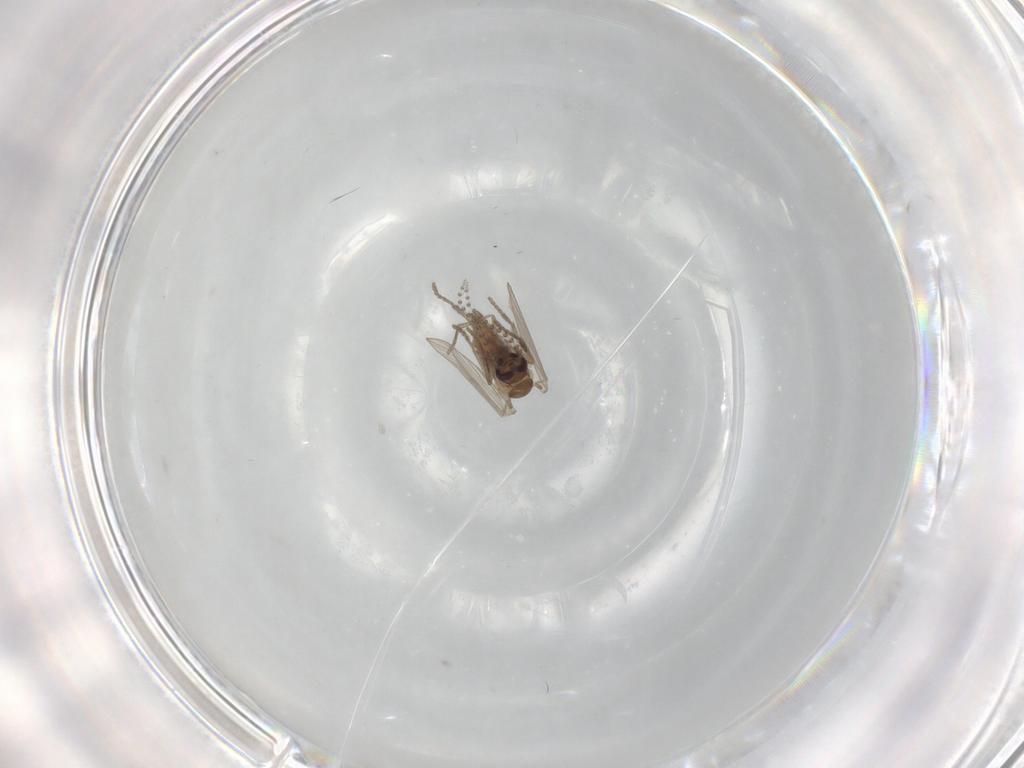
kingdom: Animalia
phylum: Arthropoda
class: Insecta
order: Diptera
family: Psychodidae
